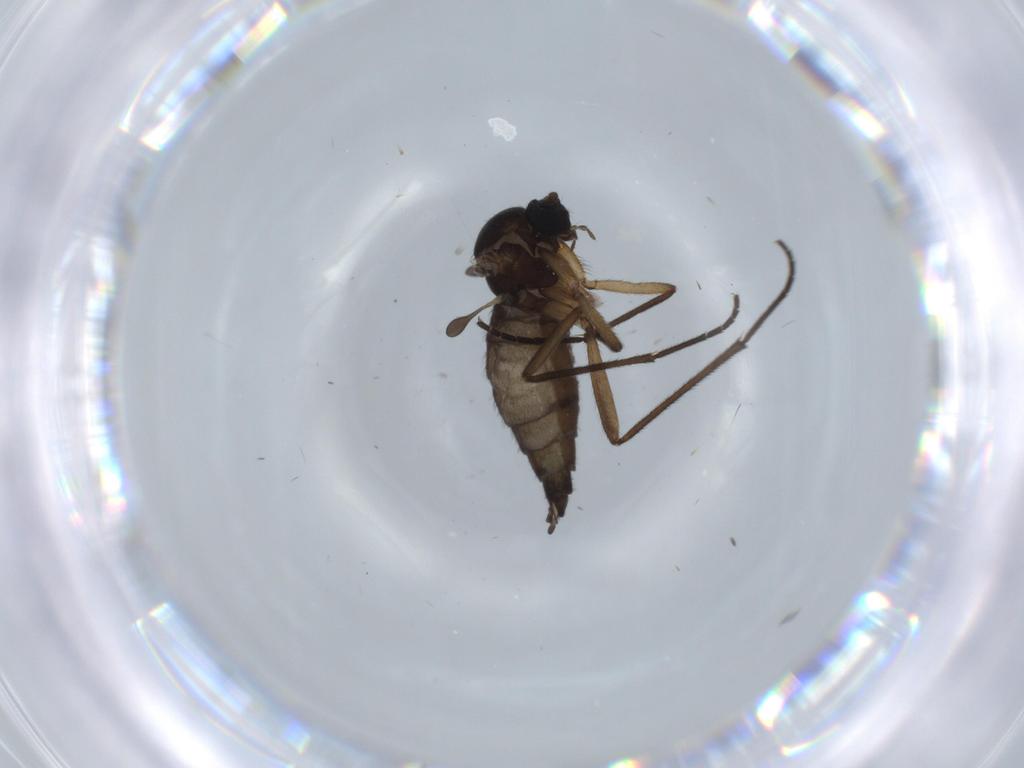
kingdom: Animalia
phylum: Arthropoda
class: Insecta
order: Diptera
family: Sciaridae
